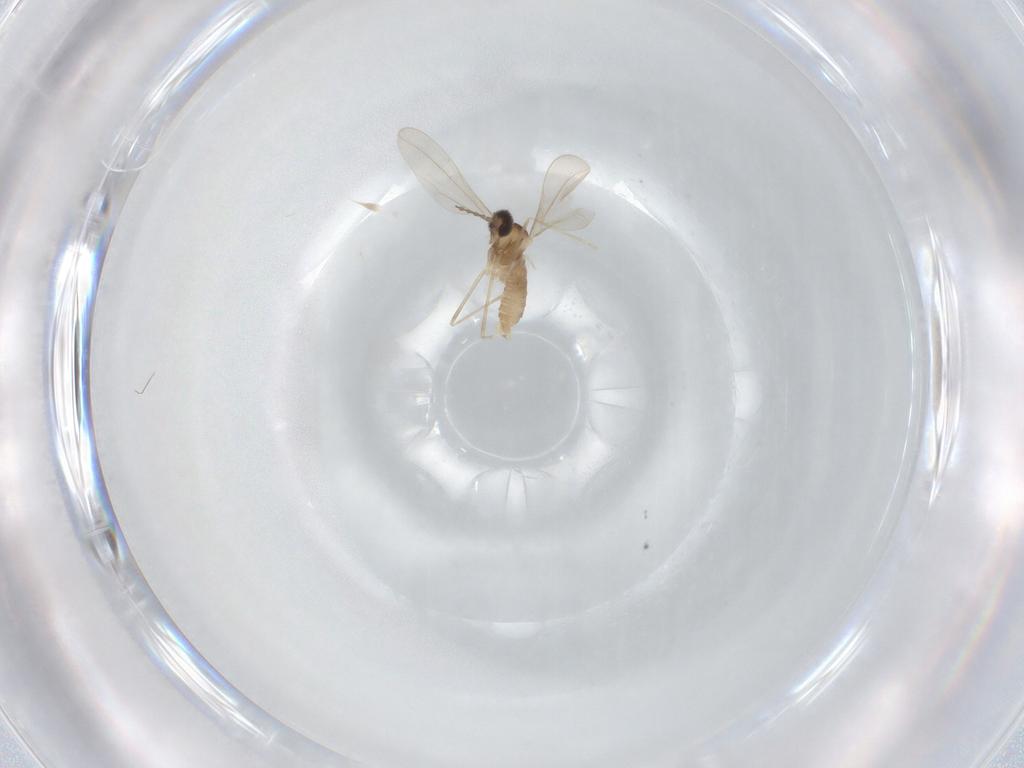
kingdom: Animalia
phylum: Arthropoda
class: Insecta
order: Diptera
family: Cecidomyiidae
